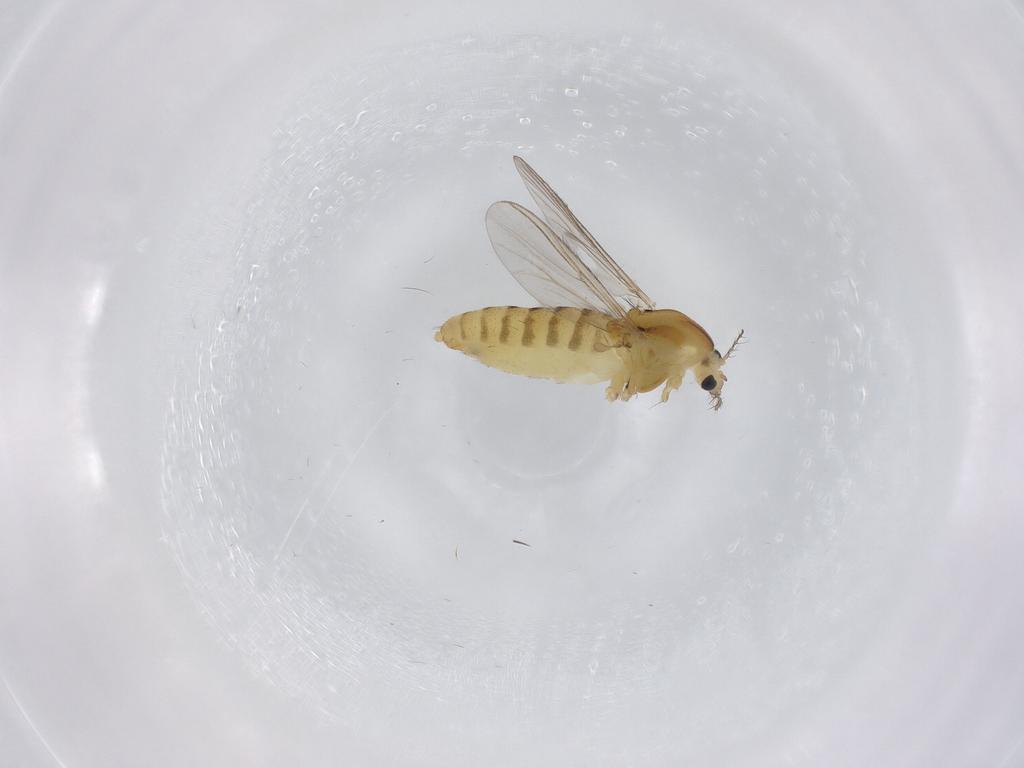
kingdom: Animalia
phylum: Arthropoda
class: Insecta
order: Diptera
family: Chironomidae
